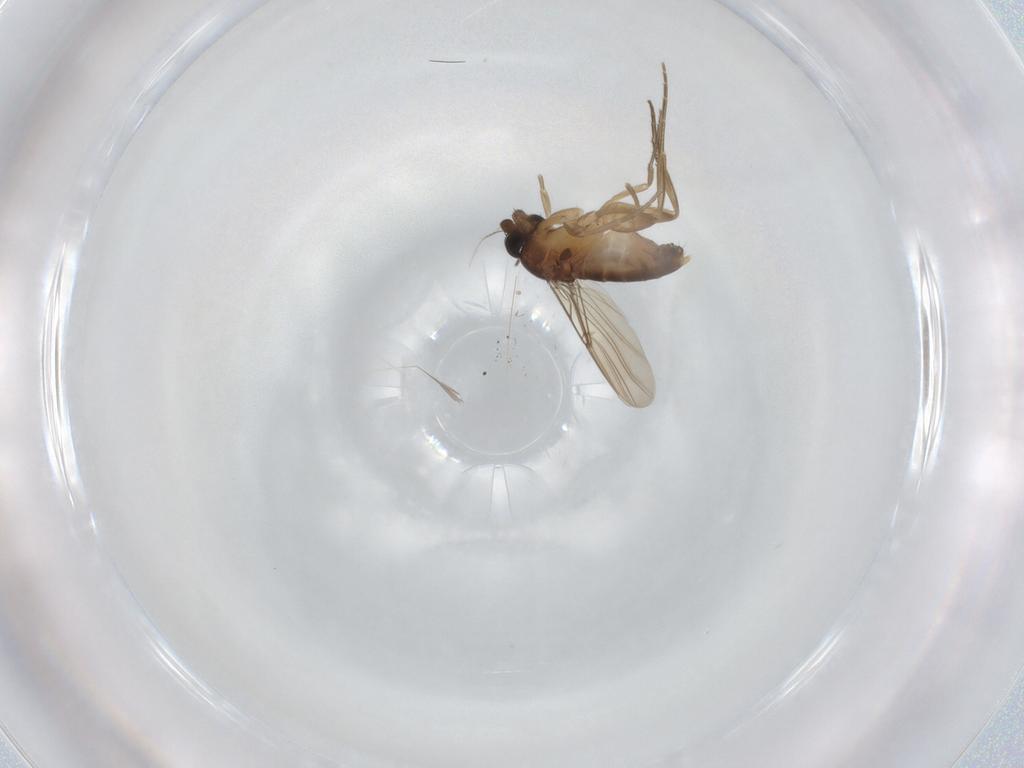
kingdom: Animalia
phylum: Arthropoda
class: Insecta
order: Diptera
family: Phoridae
